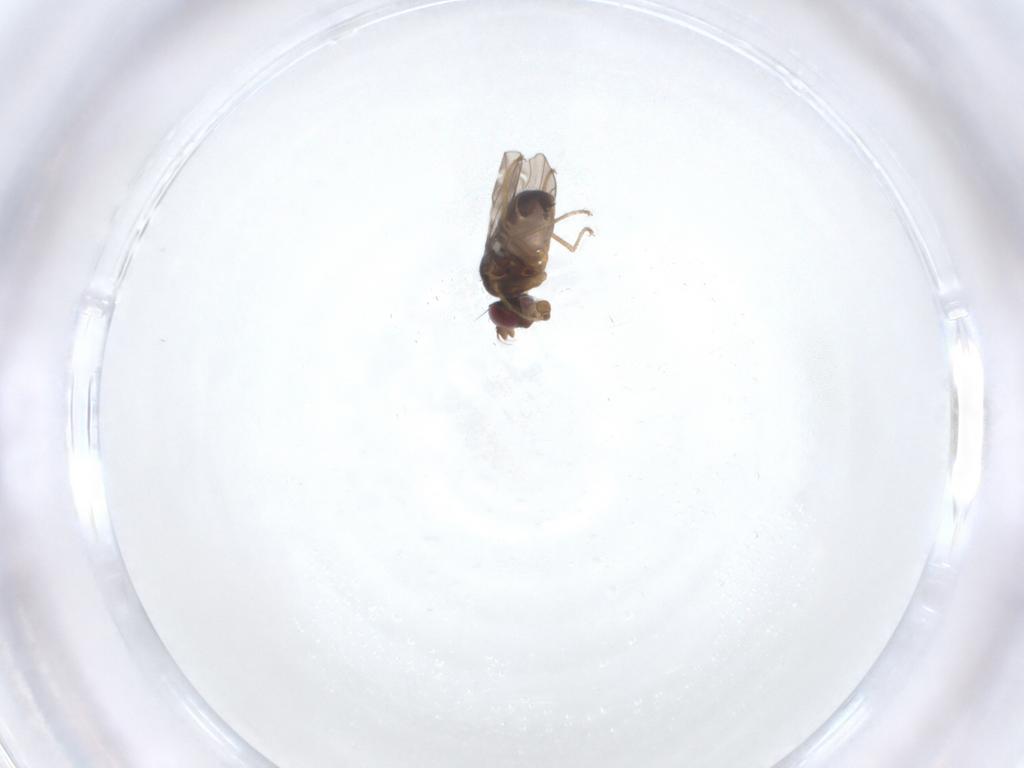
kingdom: Animalia
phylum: Arthropoda
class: Insecta
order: Diptera
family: Ephydridae
